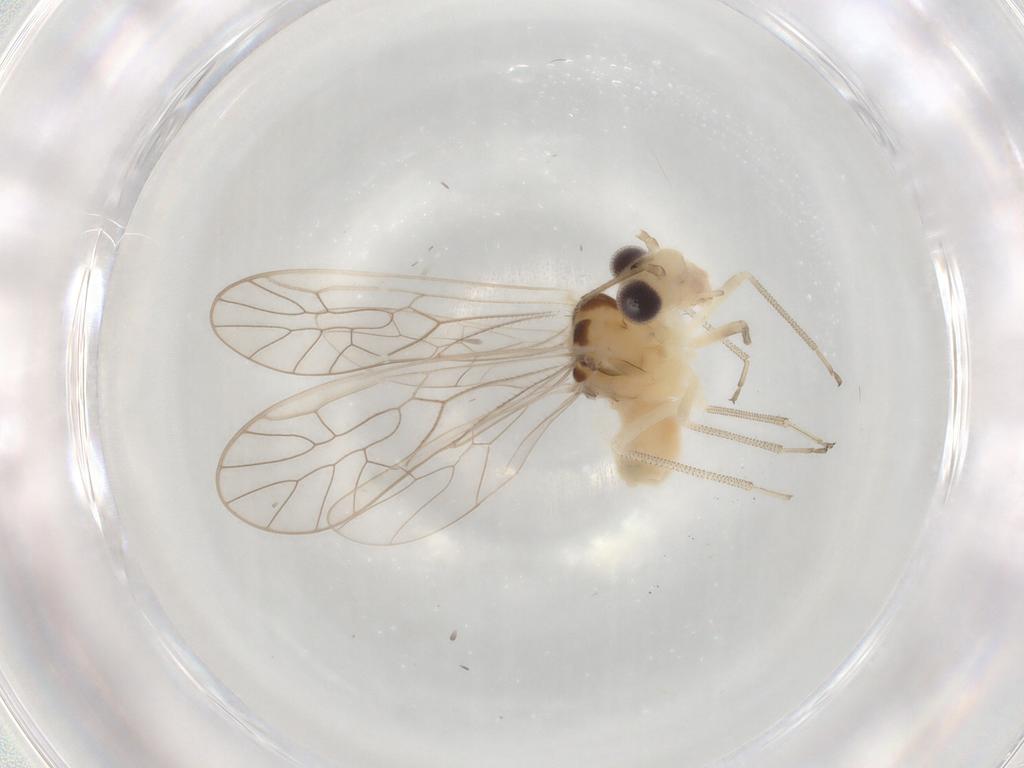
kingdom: Animalia
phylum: Arthropoda
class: Insecta
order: Psocodea
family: Stenopsocidae
